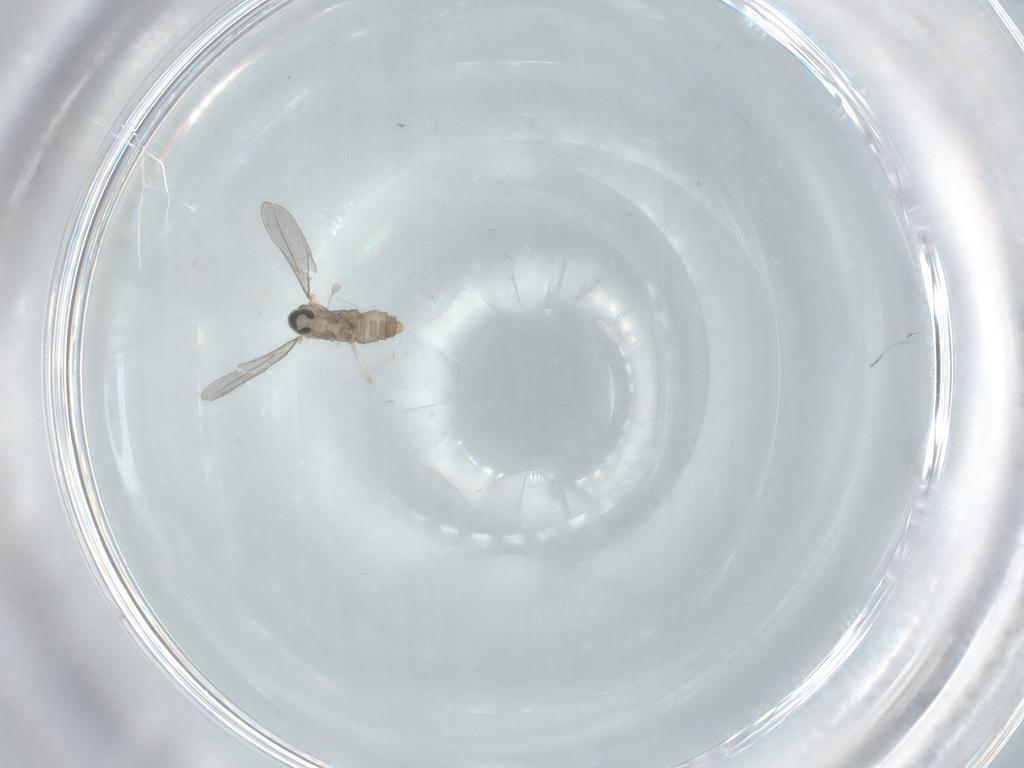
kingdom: Animalia
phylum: Arthropoda
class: Insecta
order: Diptera
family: Cecidomyiidae
